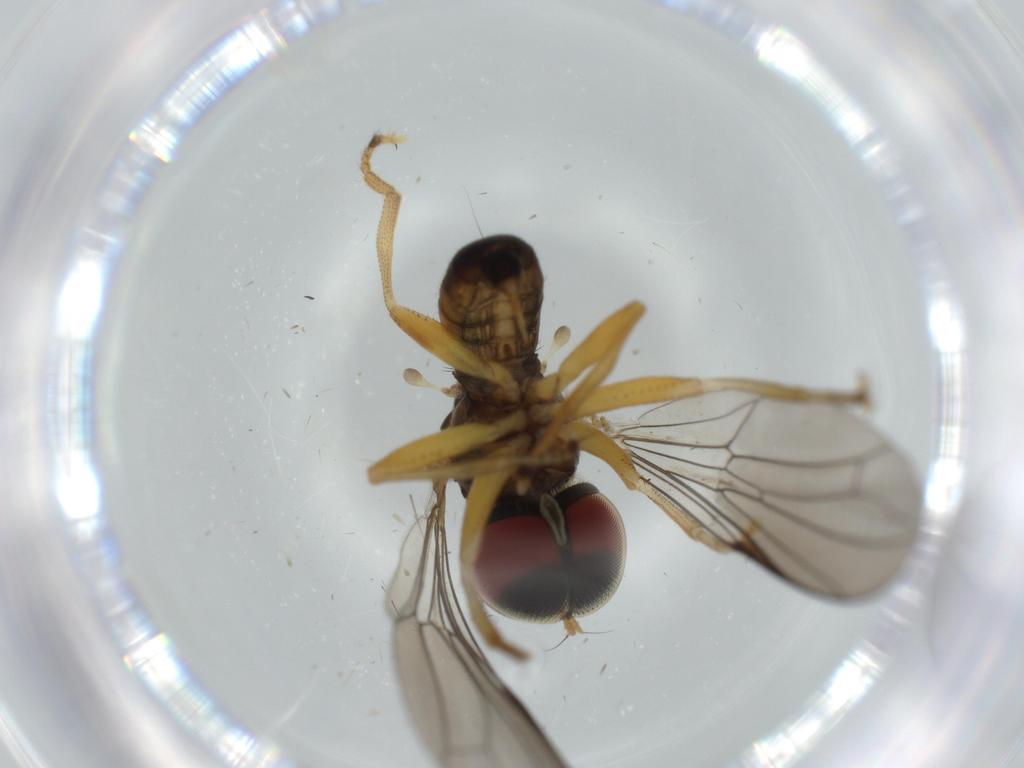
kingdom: Animalia
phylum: Arthropoda
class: Insecta
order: Diptera
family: Pipunculidae
